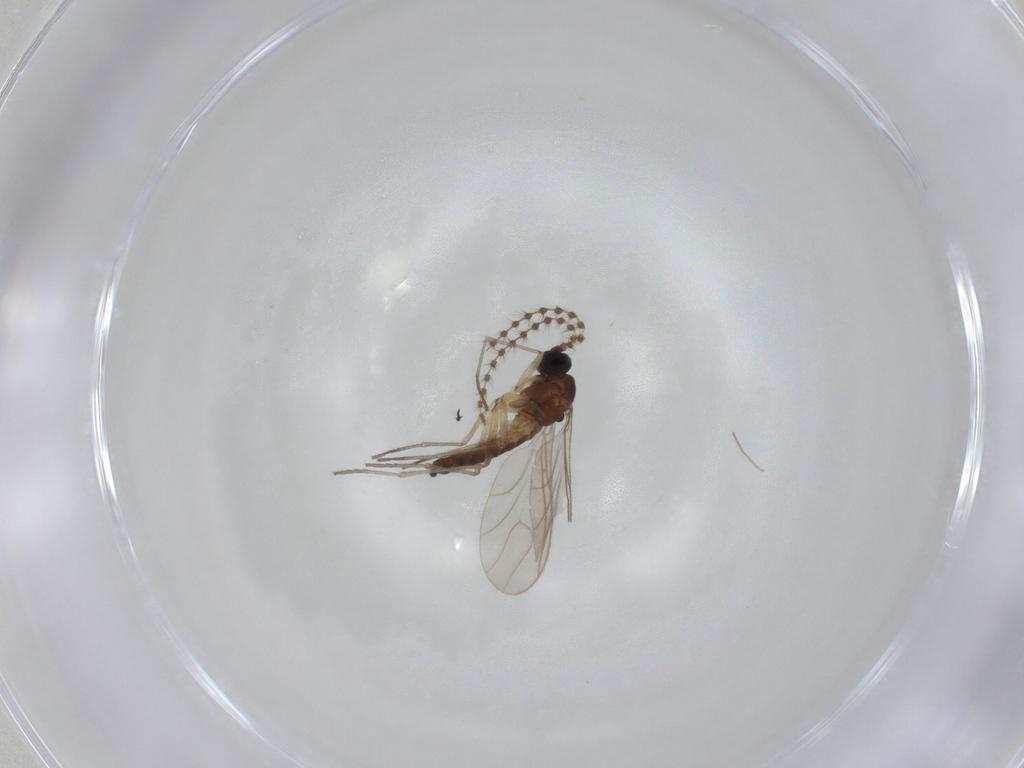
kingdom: Animalia
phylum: Arthropoda
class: Insecta
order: Diptera
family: Sciaridae
